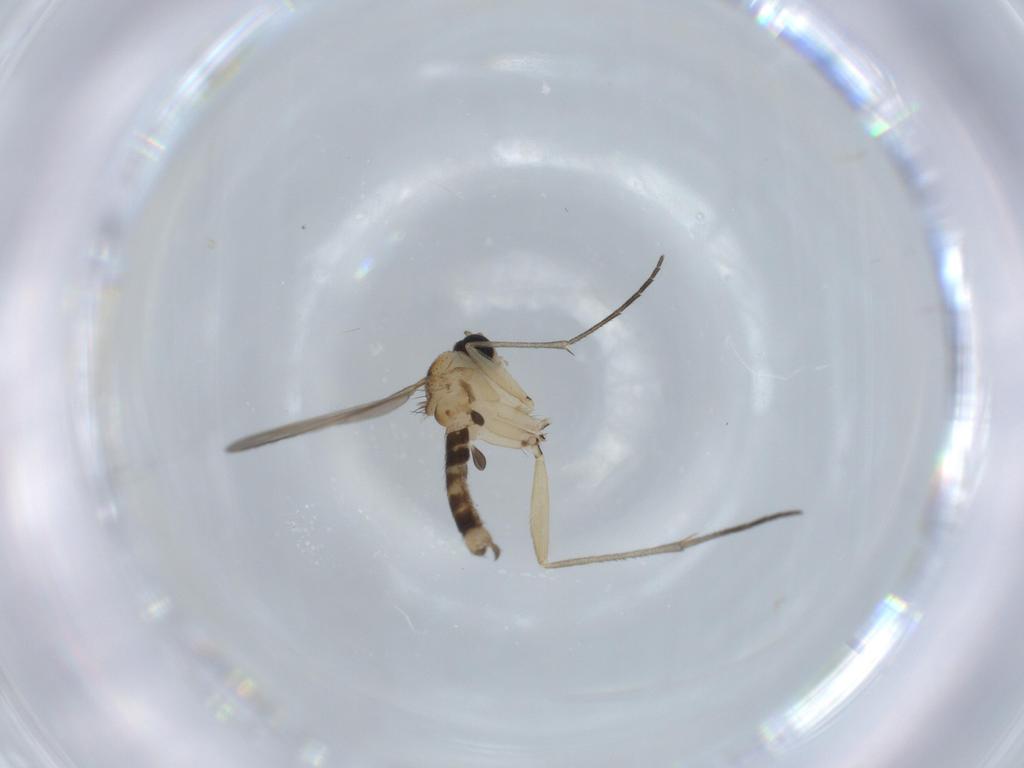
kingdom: Animalia
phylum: Arthropoda
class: Insecta
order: Diptera
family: Sciaridae
